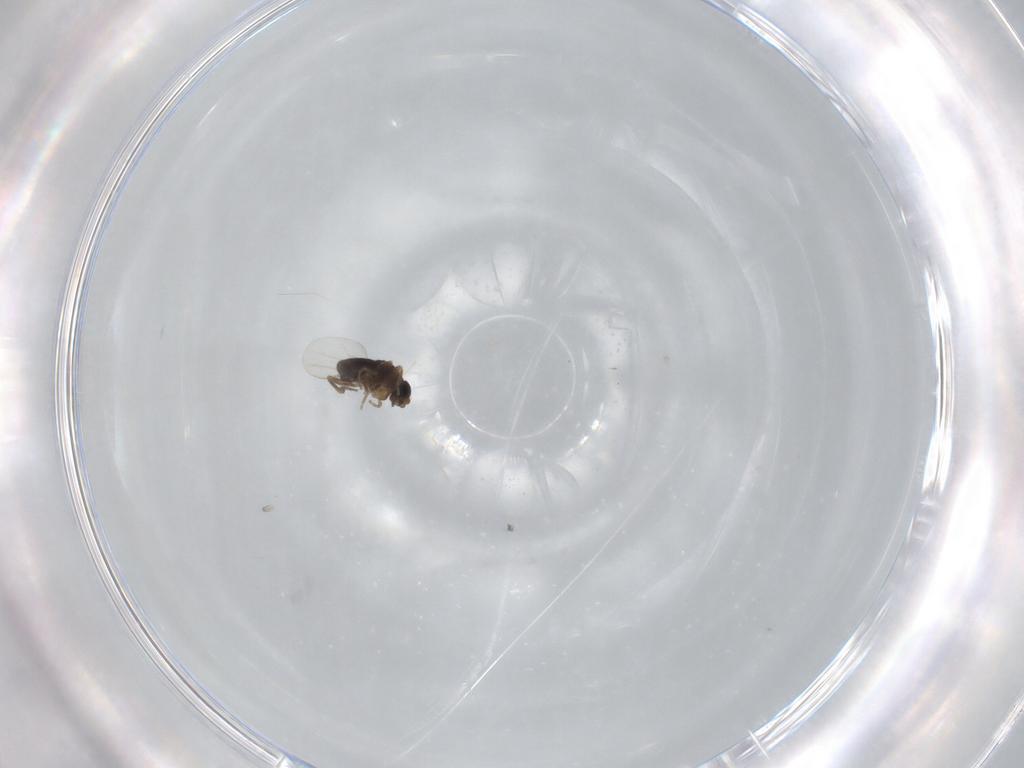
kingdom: Animalia
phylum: Arthropoda
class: Insecta
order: Diptera
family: Phoridae
